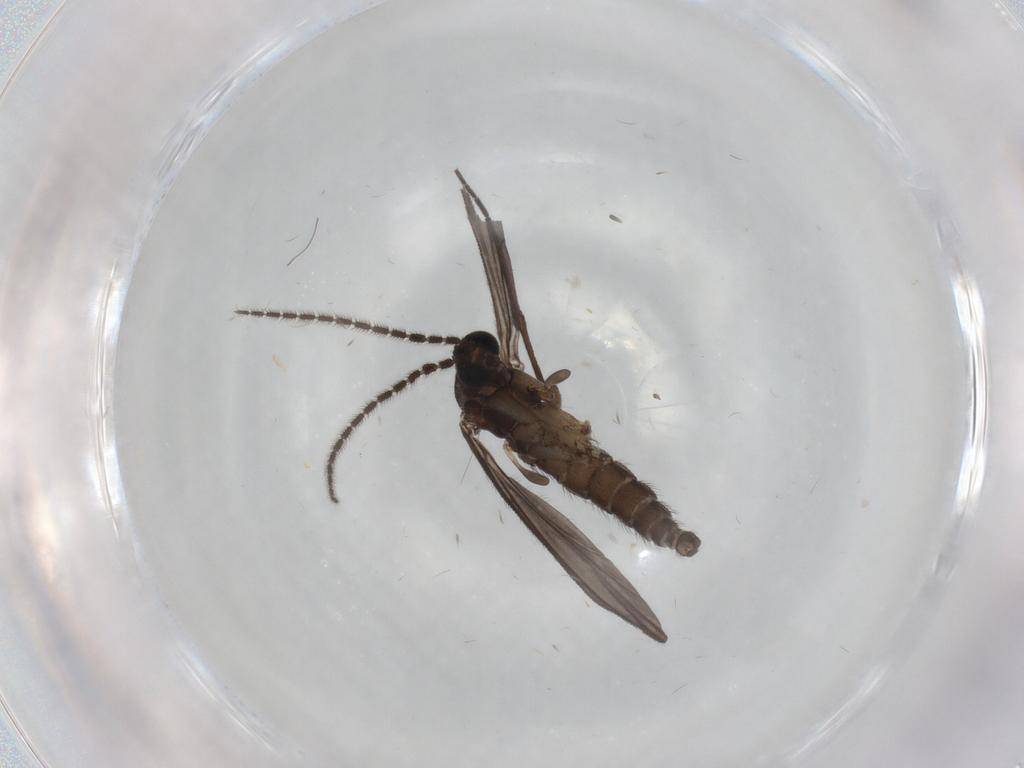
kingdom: Animalia
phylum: Arthropoda
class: Insecta
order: Diptera
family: Sciaridae
